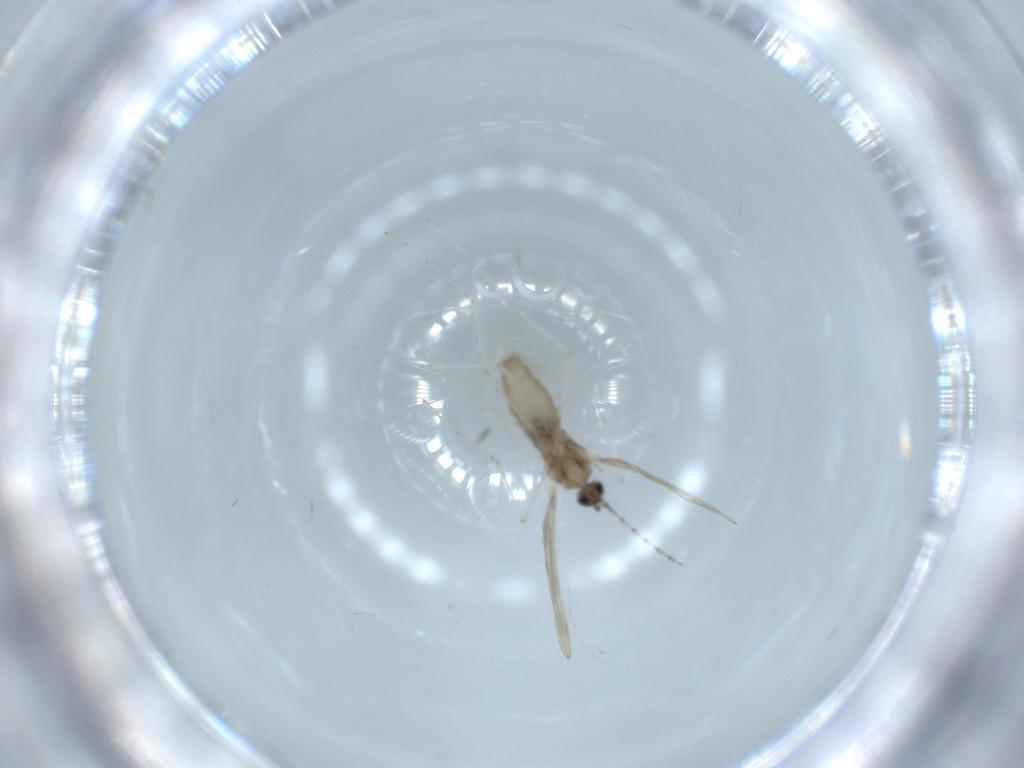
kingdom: Animalia
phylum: Arthropoda
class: Insecta
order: Diptera
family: Cecidomyiidae
